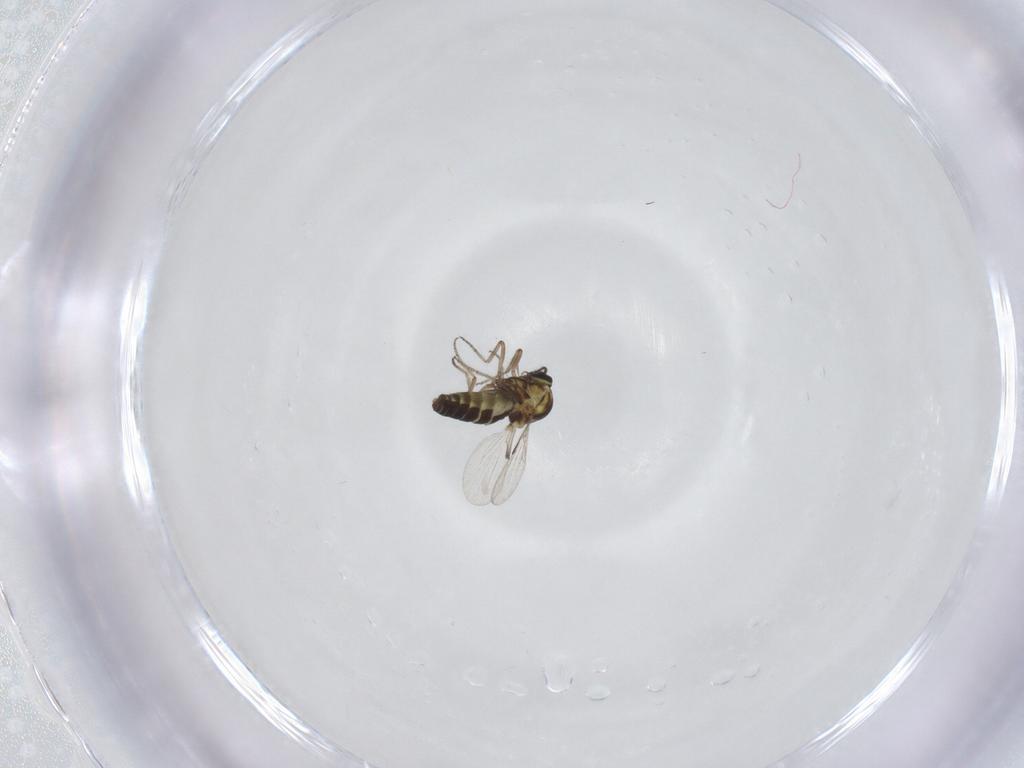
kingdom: Animalia
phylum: Arthropoda
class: Insecta
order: Diptera
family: Ceratopogonidae
